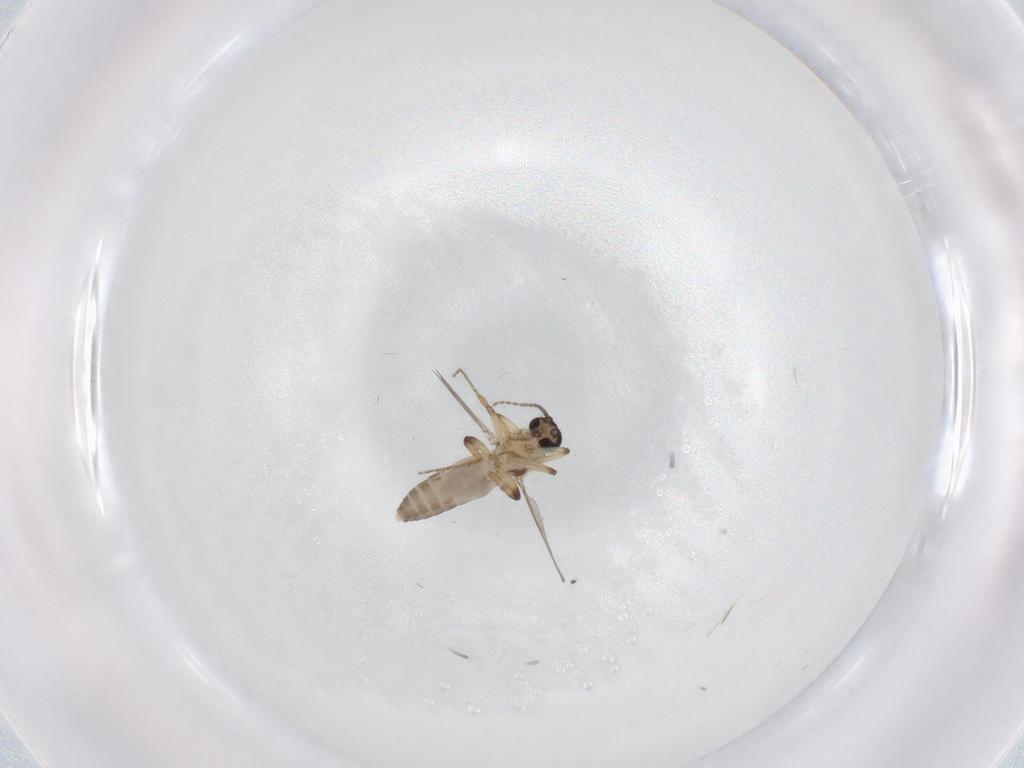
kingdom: Animalia
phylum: Arthropoda
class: Insecta
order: Diptera
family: Ceratopogonidae
